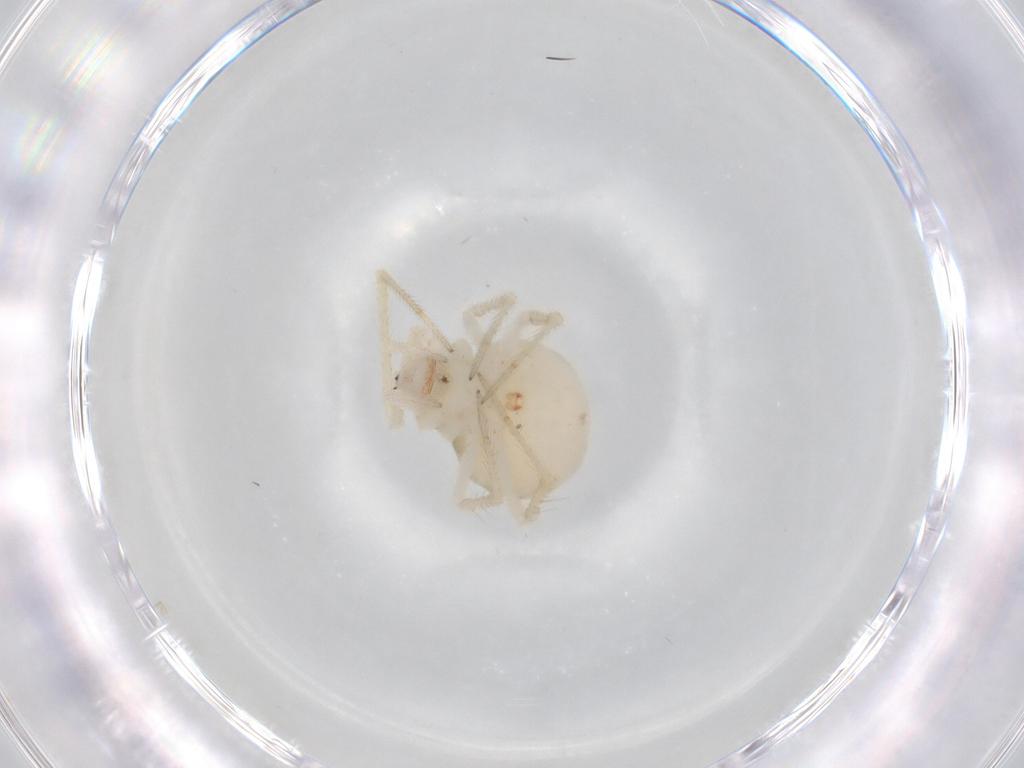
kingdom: Animalia
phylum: Arthropoda
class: Arachnida
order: Araneae
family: Theridiidae
